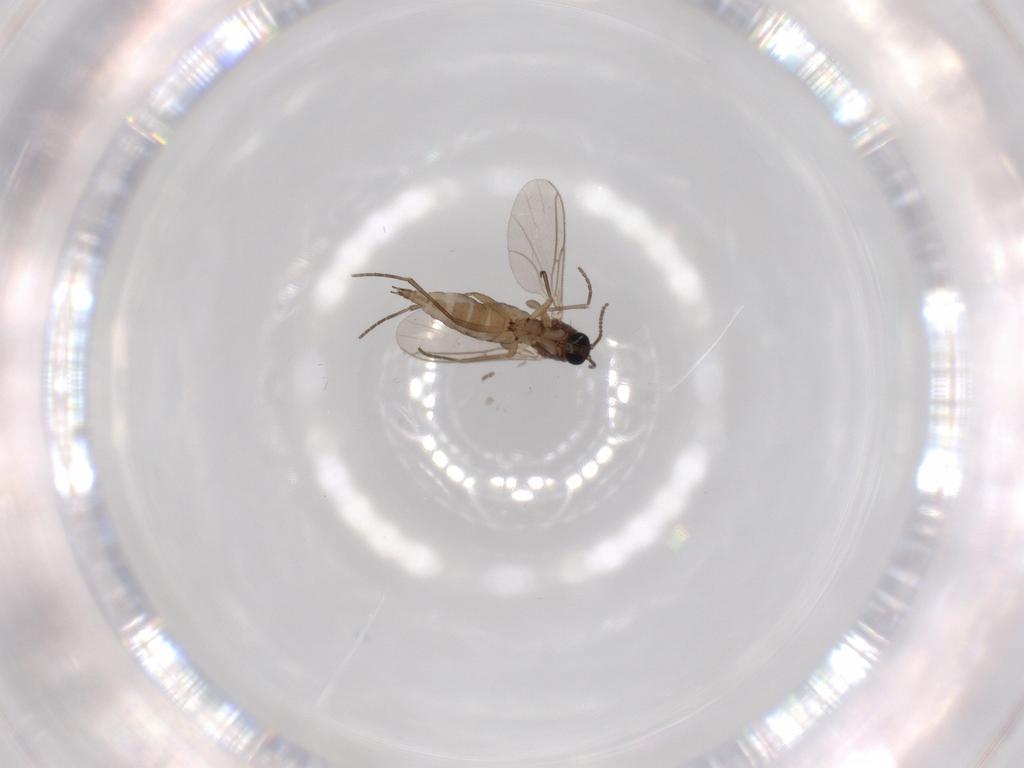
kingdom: Animalia
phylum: Arthropoda
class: Insecta
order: Diptera
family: Sciaridae
